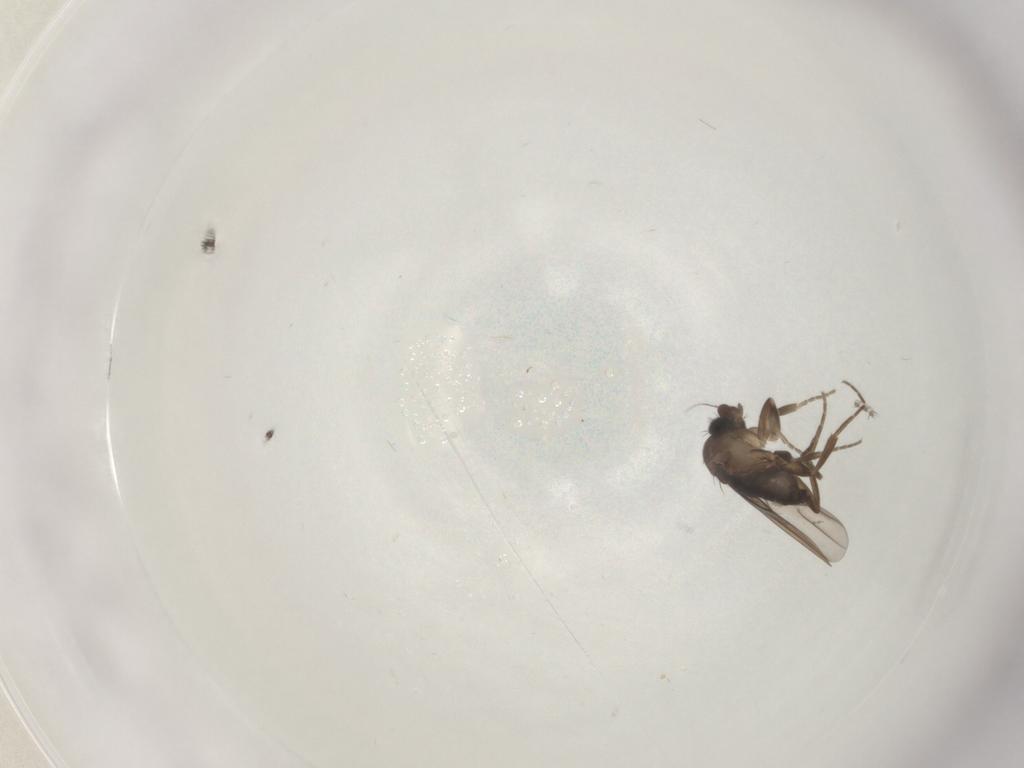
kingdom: Animalia
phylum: Arthropoda
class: Insecta
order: Diptera
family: Phoridae
